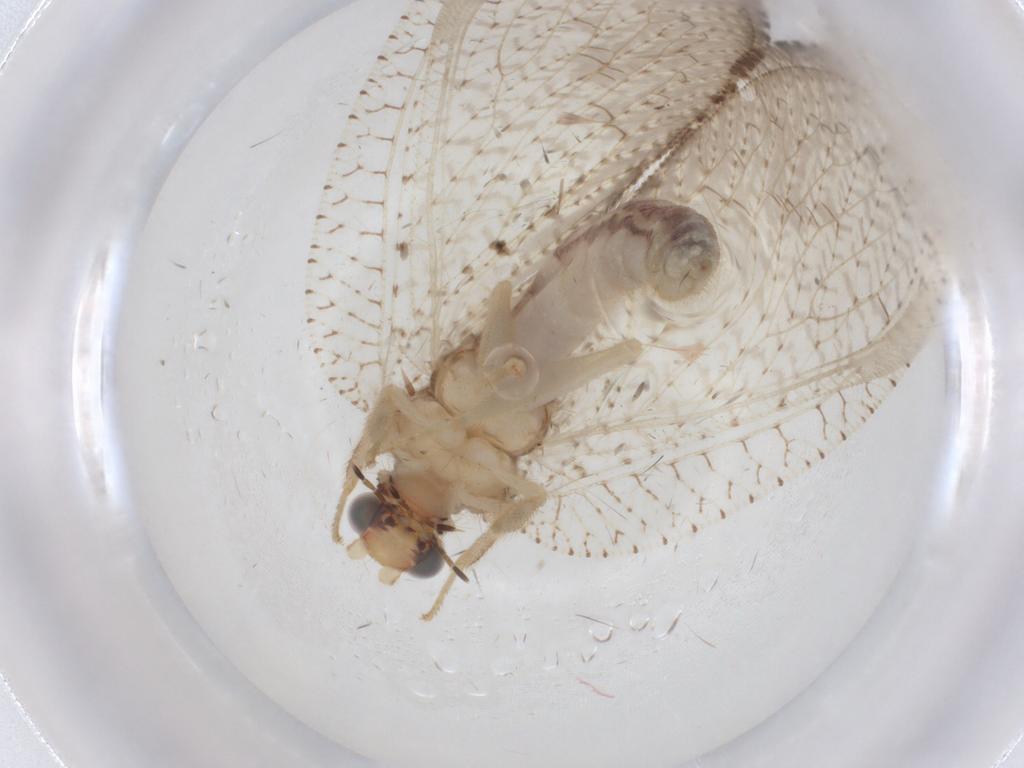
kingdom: Animalia
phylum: Arthropoda
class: Insecta
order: Neuroptera
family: Hemerobiidae
